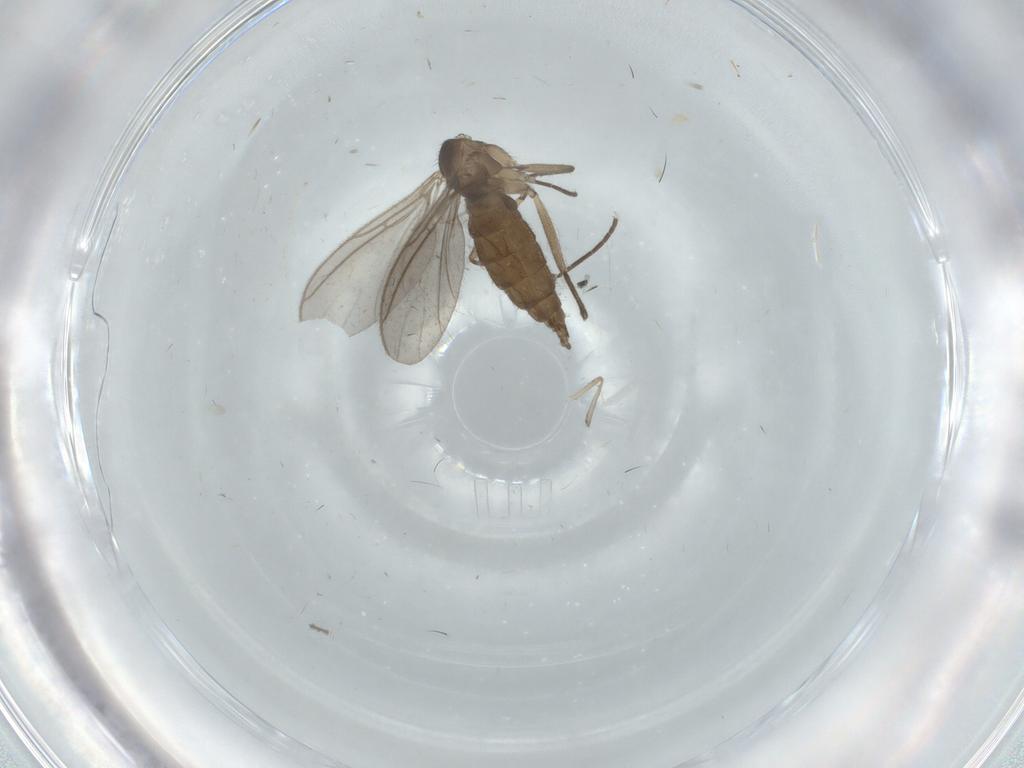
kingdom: Animalia
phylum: Arthropoda
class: Insecta
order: Diptera
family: Sciaridae
